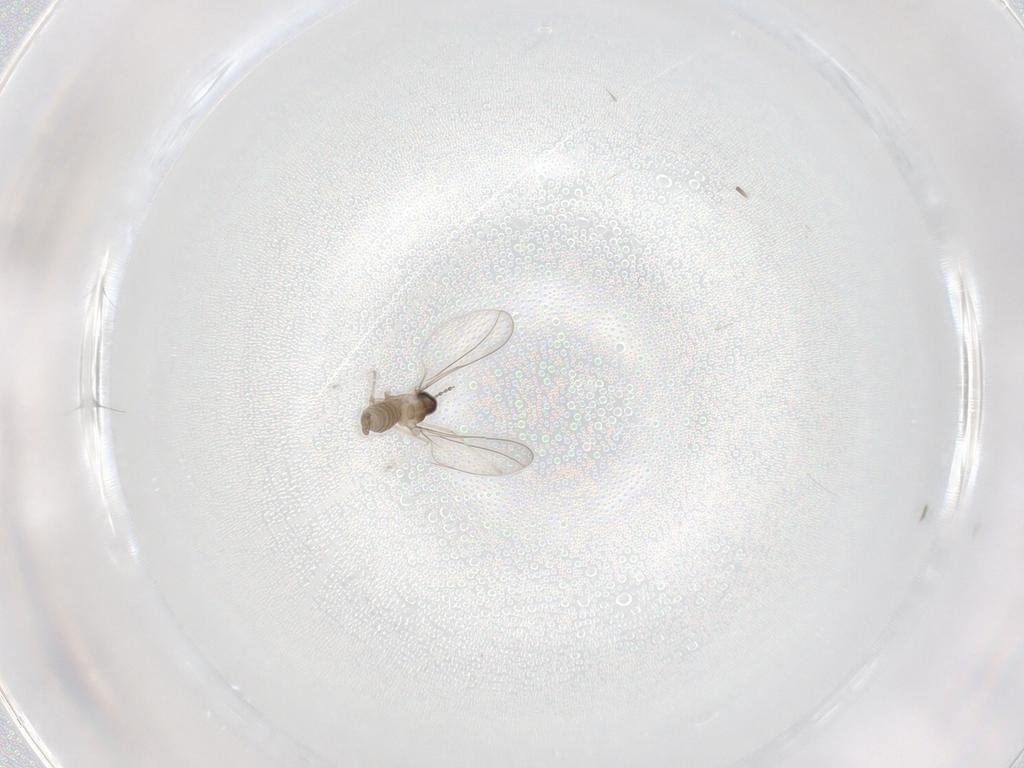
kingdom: Animalia
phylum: Arthropoda
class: Insecta
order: Diptera
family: Cecidomyiidae
